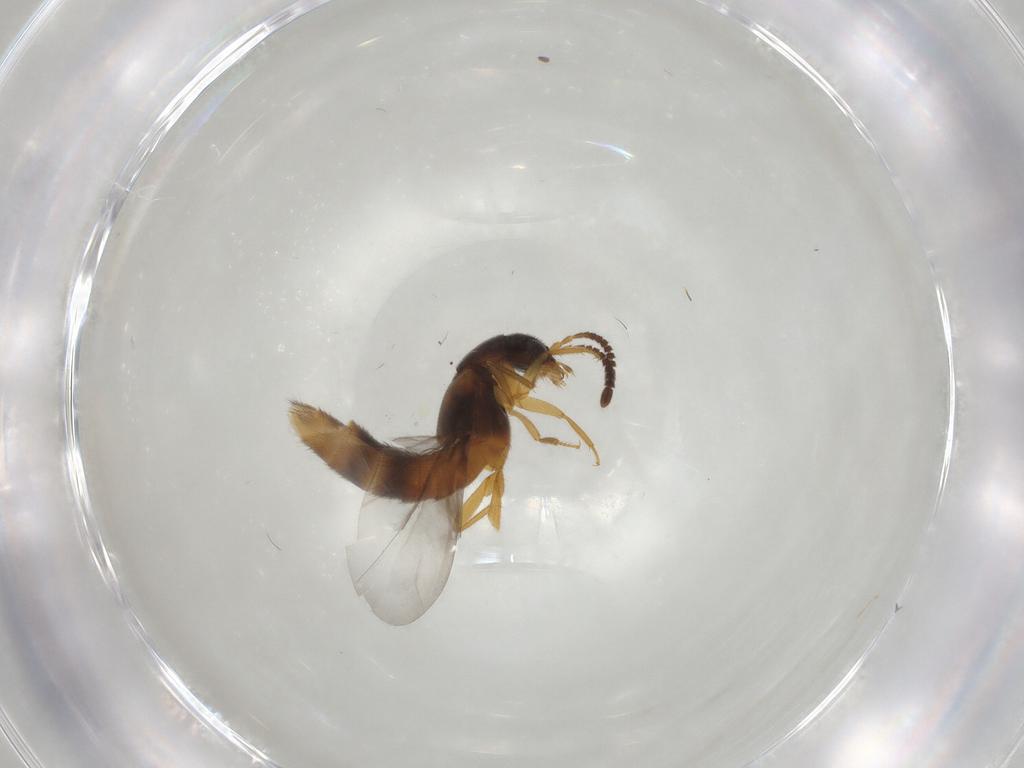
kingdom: Animalia
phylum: Arthropoda
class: Insecta
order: Coleoptera
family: Staphylinidae
